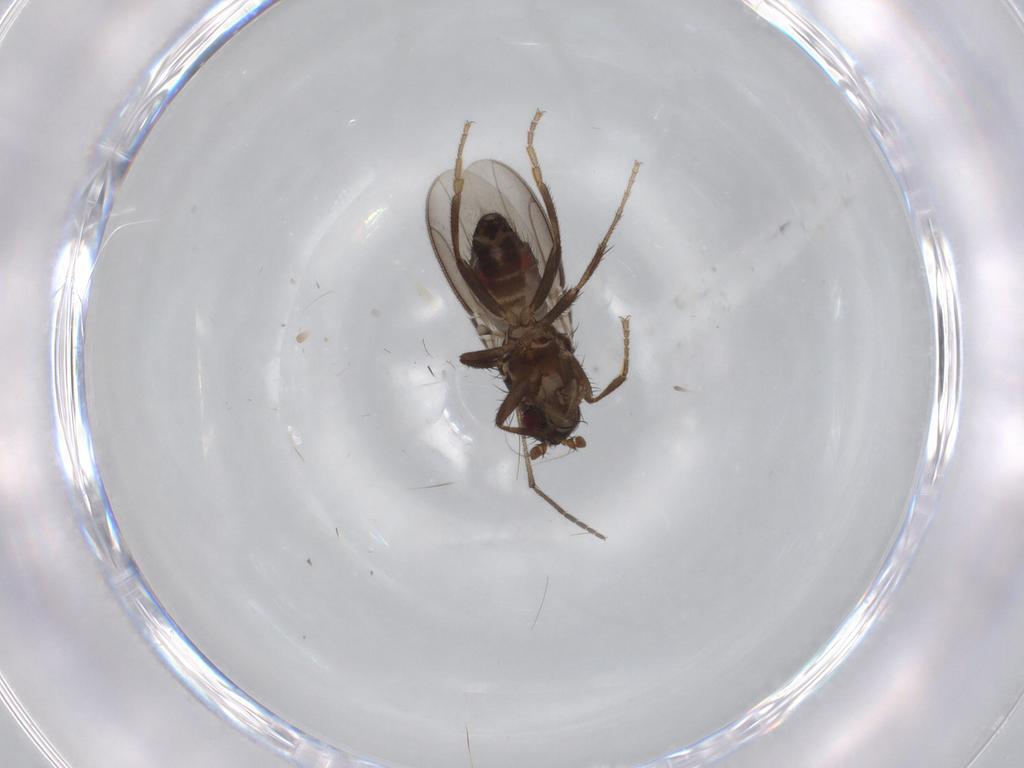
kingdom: Animalia
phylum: Arthropoda
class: Insecta
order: Diptera
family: Sphaeroceridae
